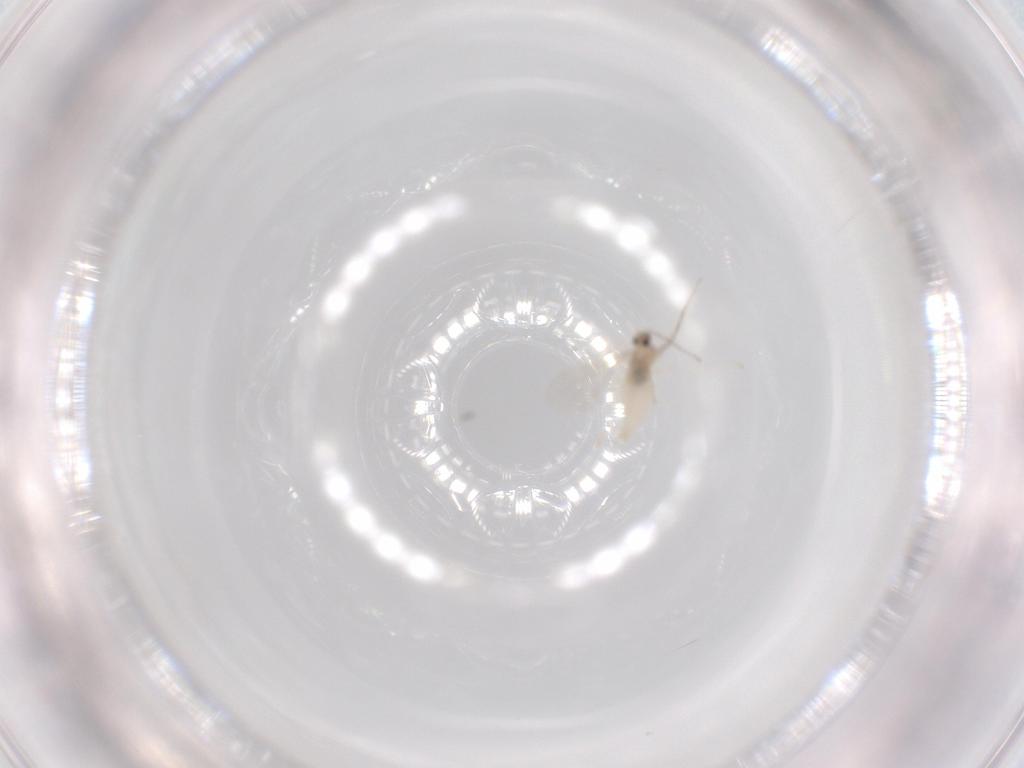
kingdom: Animalia
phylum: Arthropoda
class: Insecta
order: Diptera
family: Cecidomyiidae
